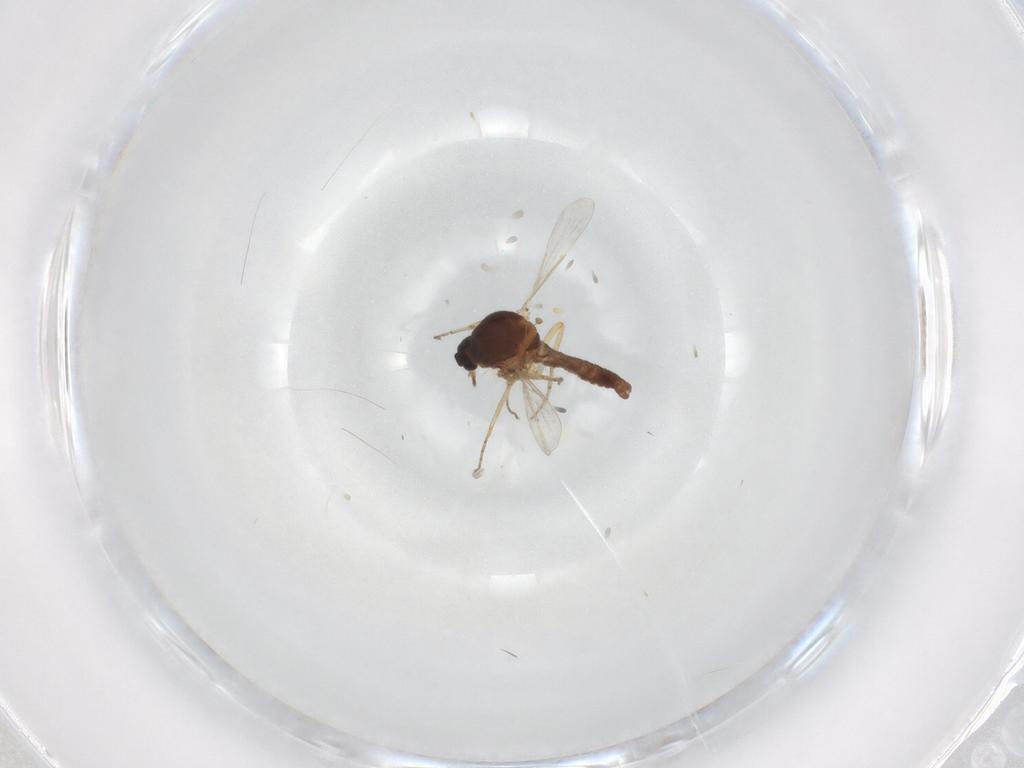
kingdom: Animalia
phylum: Arthropoda
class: Insecta
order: Diptera
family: Ceratopogonidae
